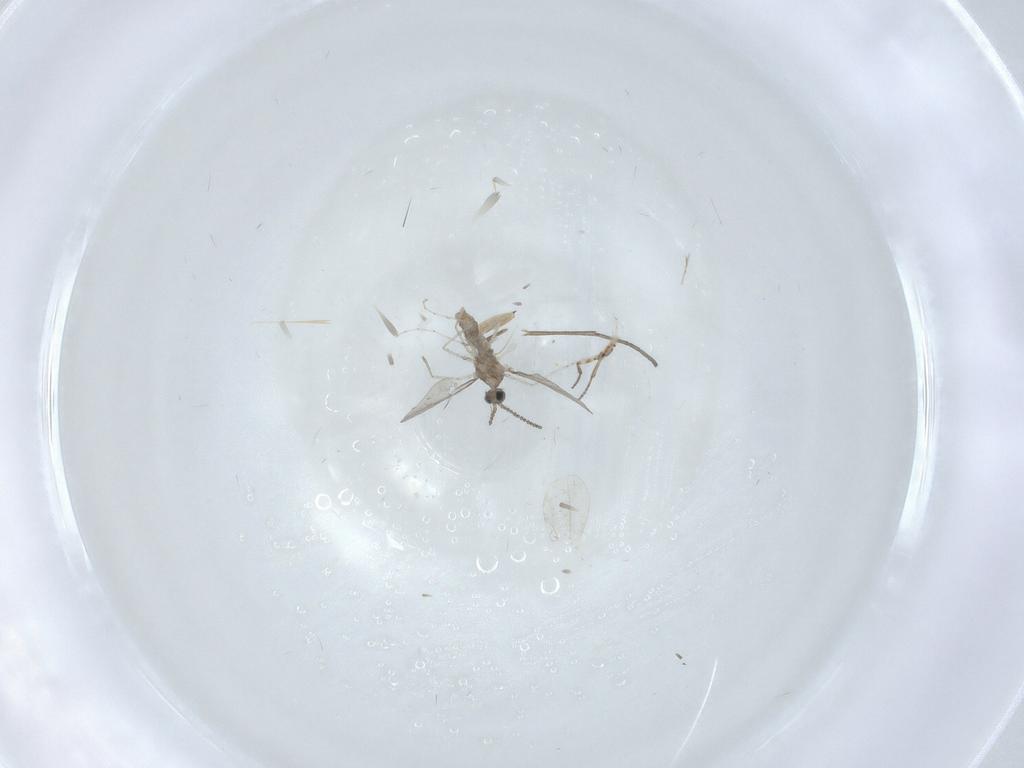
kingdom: Animalia
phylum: Arthropoda
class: Insecta
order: Diptera
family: Cecidomyiidae
